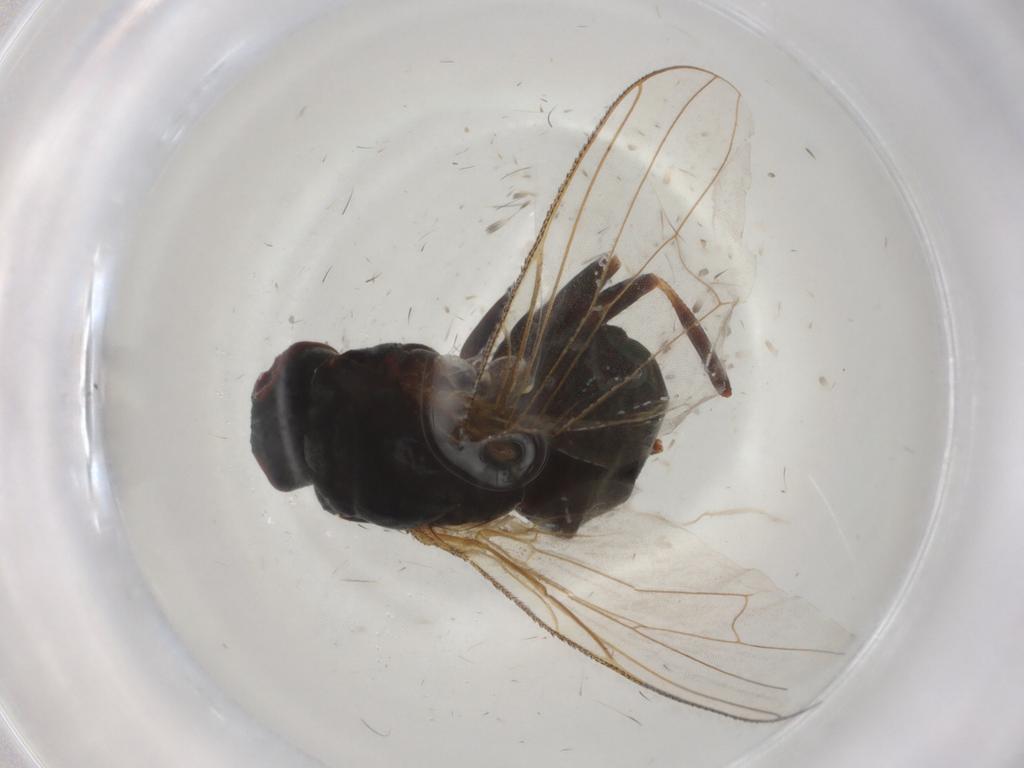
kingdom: Animalia
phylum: Arthropoda
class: Insecta
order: Diptera
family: Muscidae
